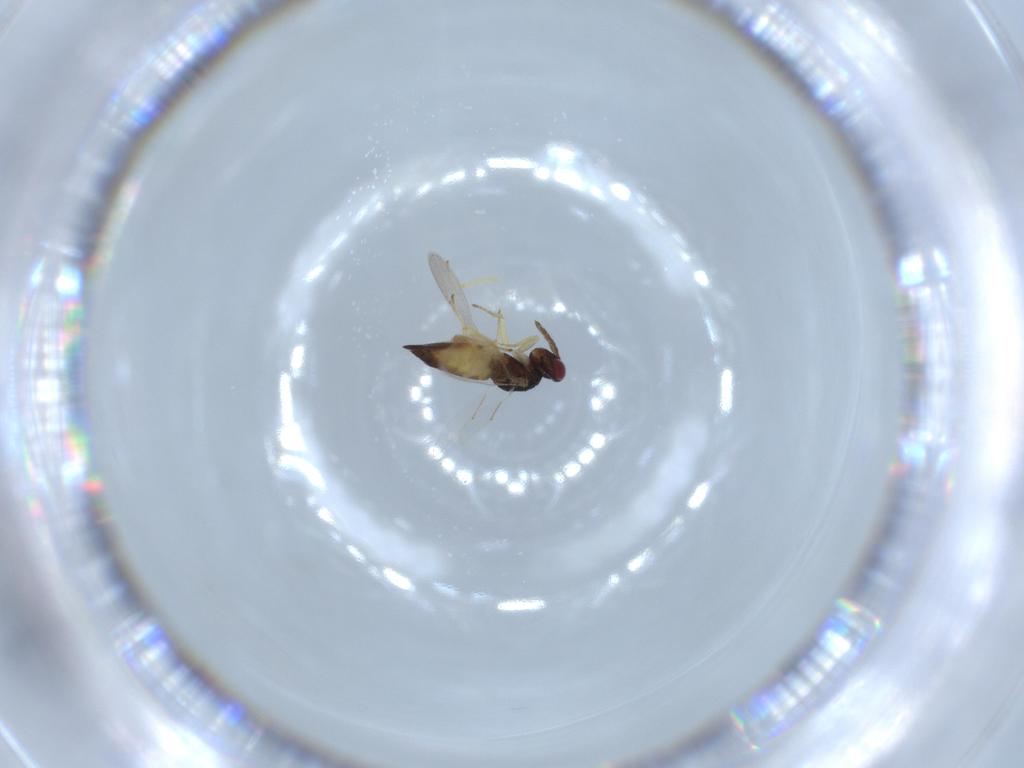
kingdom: Animalia
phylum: Arthropoda
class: Insecta
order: Hymenoptera
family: Eulophidae
